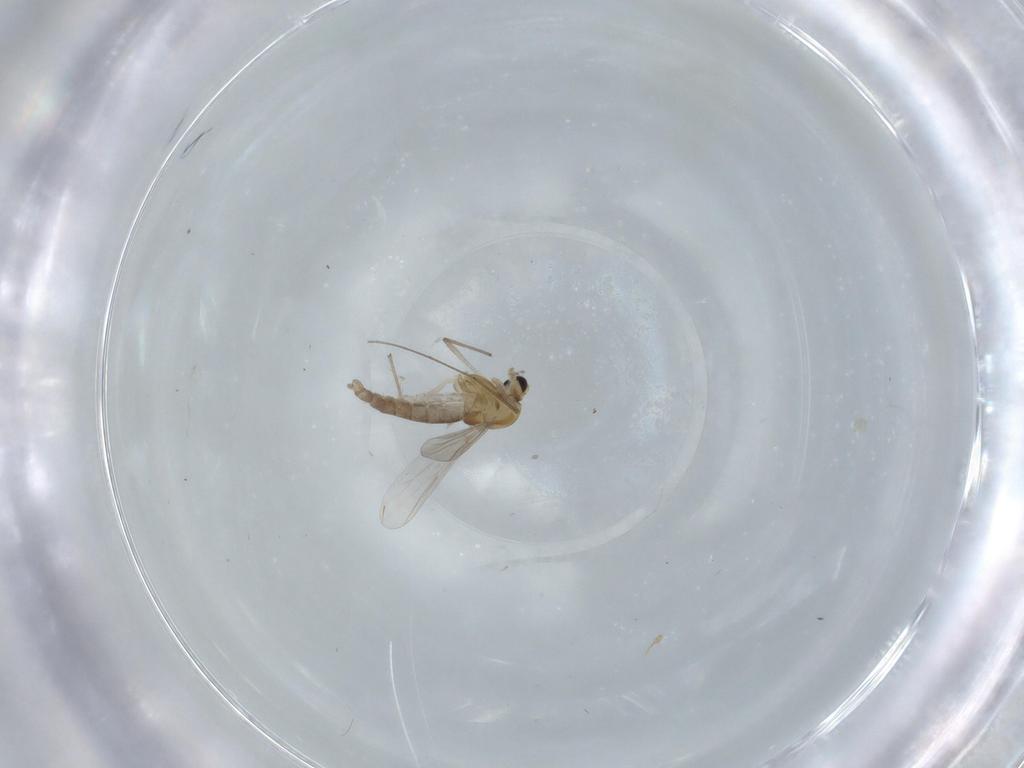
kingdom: Animalia
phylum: Arthropoda
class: Insecta
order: Diptera
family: Chironomidae
